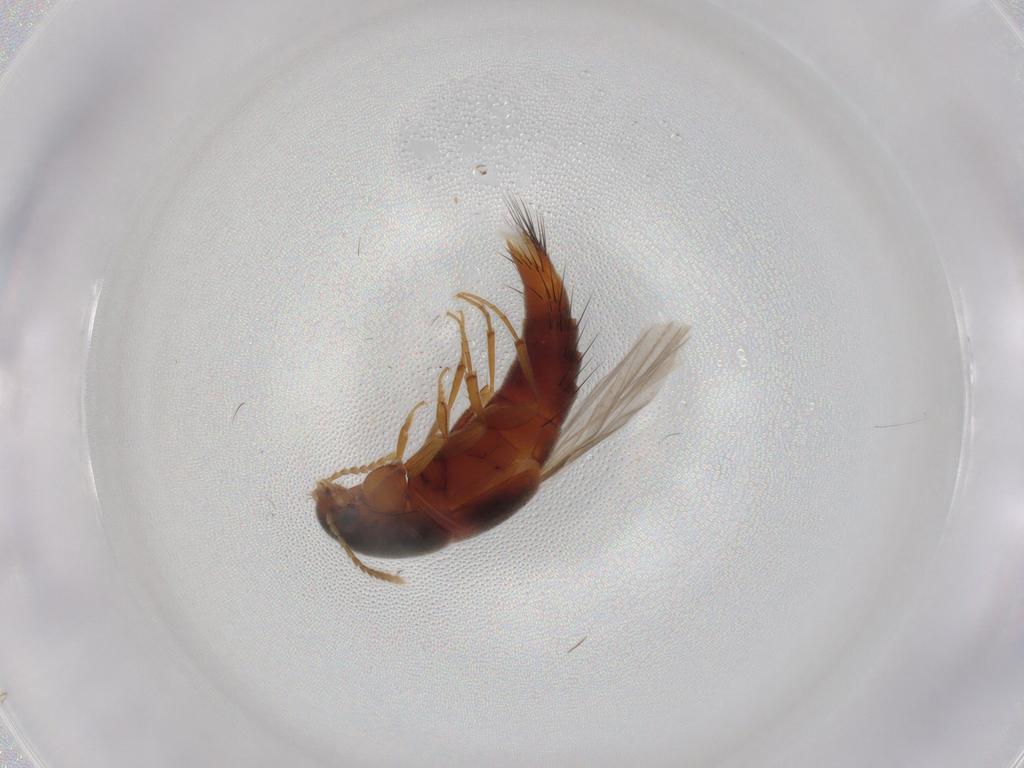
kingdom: Animalia
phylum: Arthropoda
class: Insecta
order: Coleoptera
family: Staphylinidae
